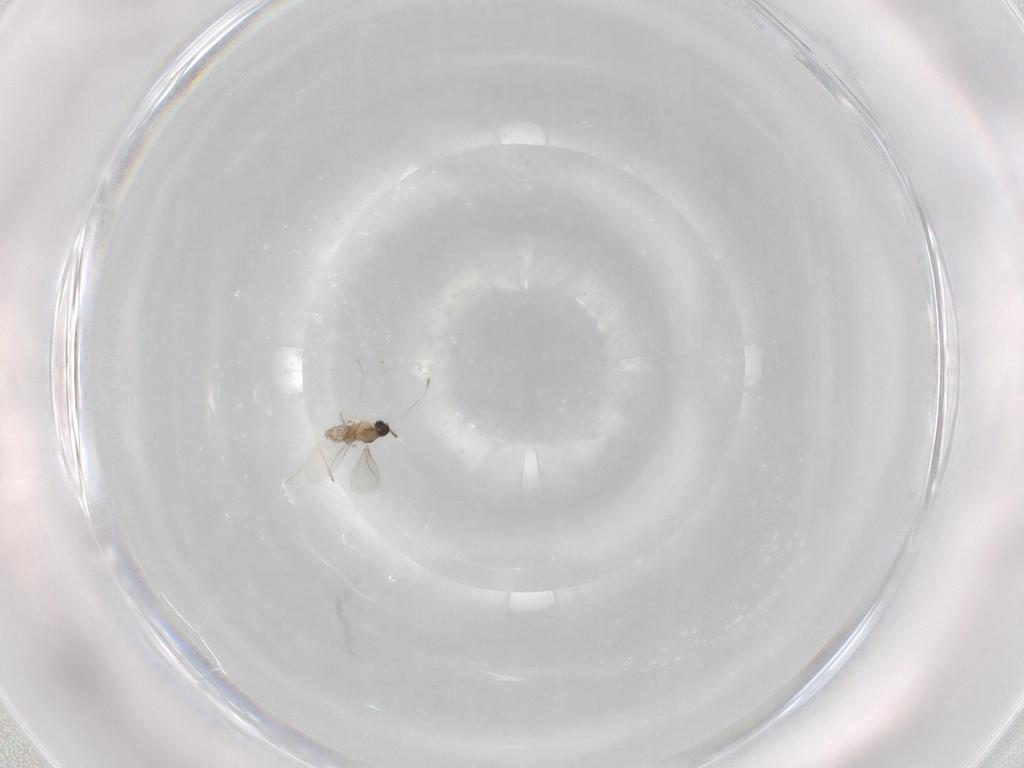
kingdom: Animalia
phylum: Arthropoda
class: Insecta
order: Diptera
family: Cecidomyiidae
